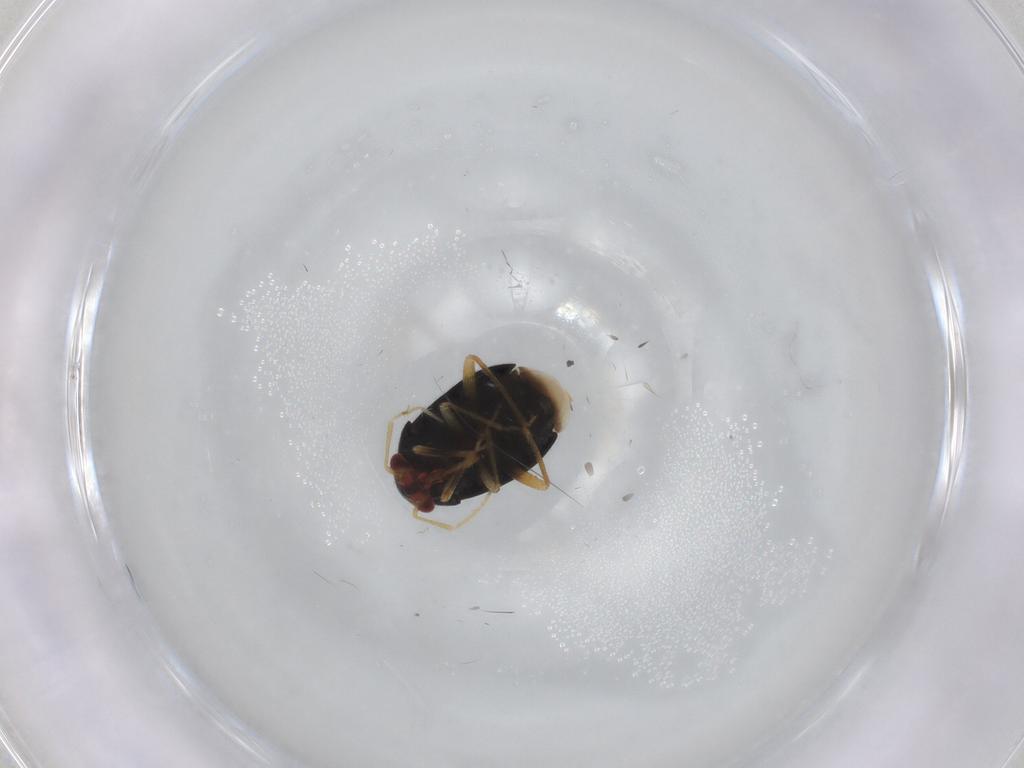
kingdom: Animalia
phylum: Arthropoda
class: Insecta
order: Hemiptera
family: Miridae
